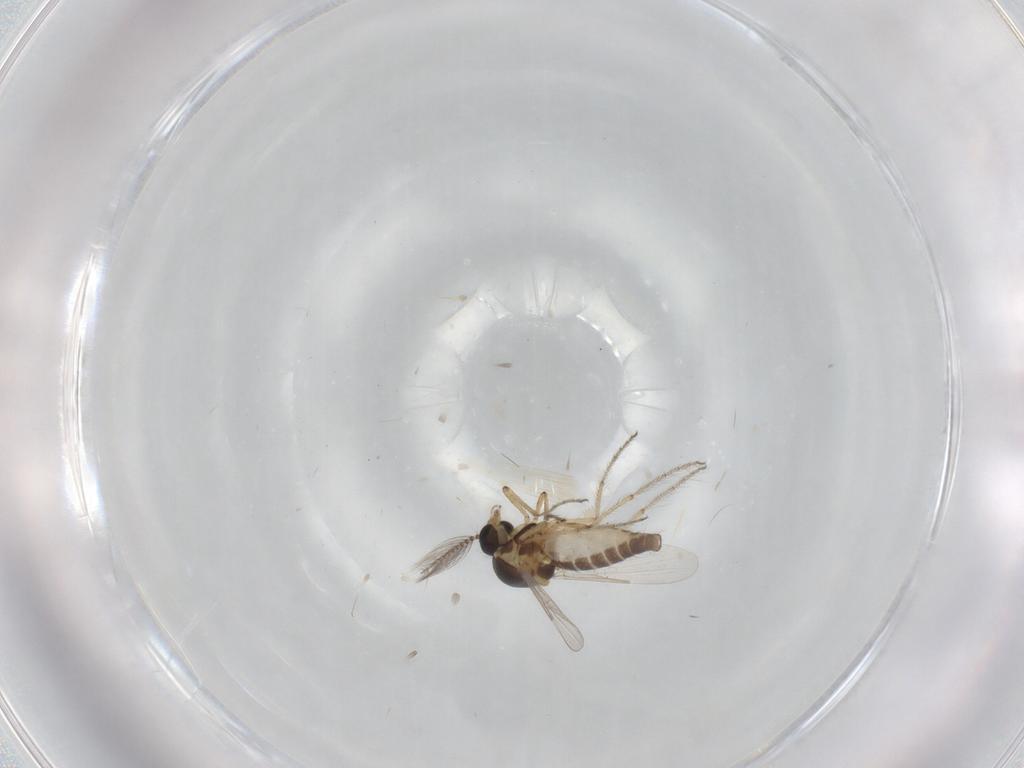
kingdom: Animalia
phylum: Arthropoda
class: Insecta
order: Diptera
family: Ceratopogonidae
